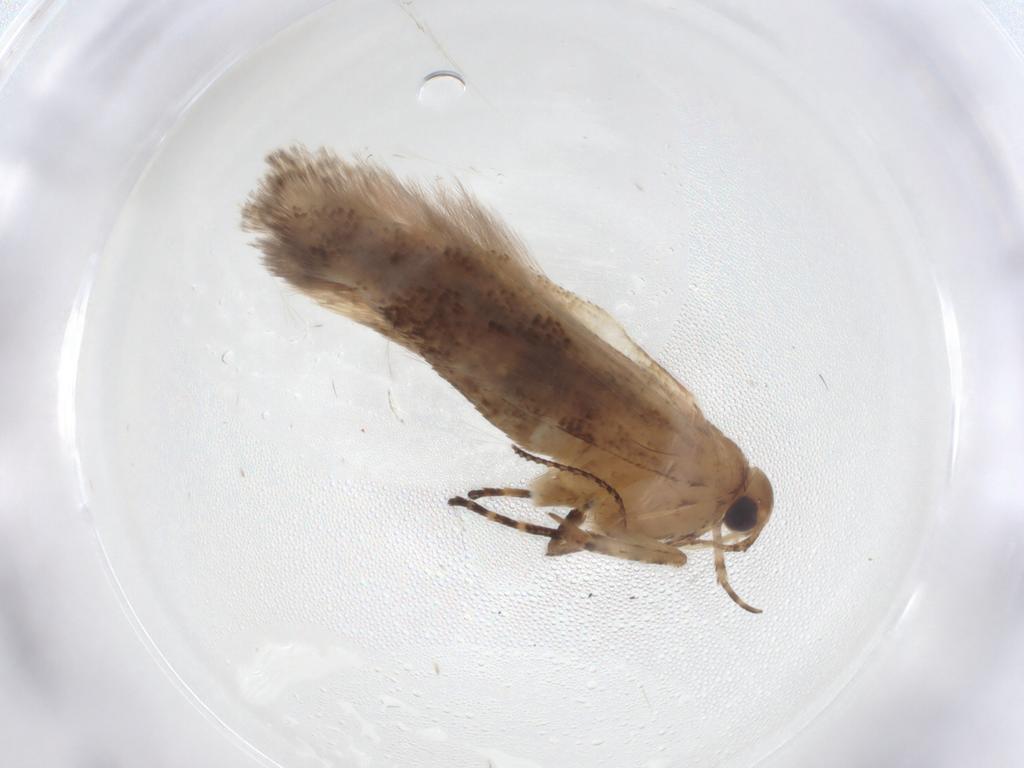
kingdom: Animalia
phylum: Arthropoda
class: Insecta
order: Lepidoptera
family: Gelechiidae
